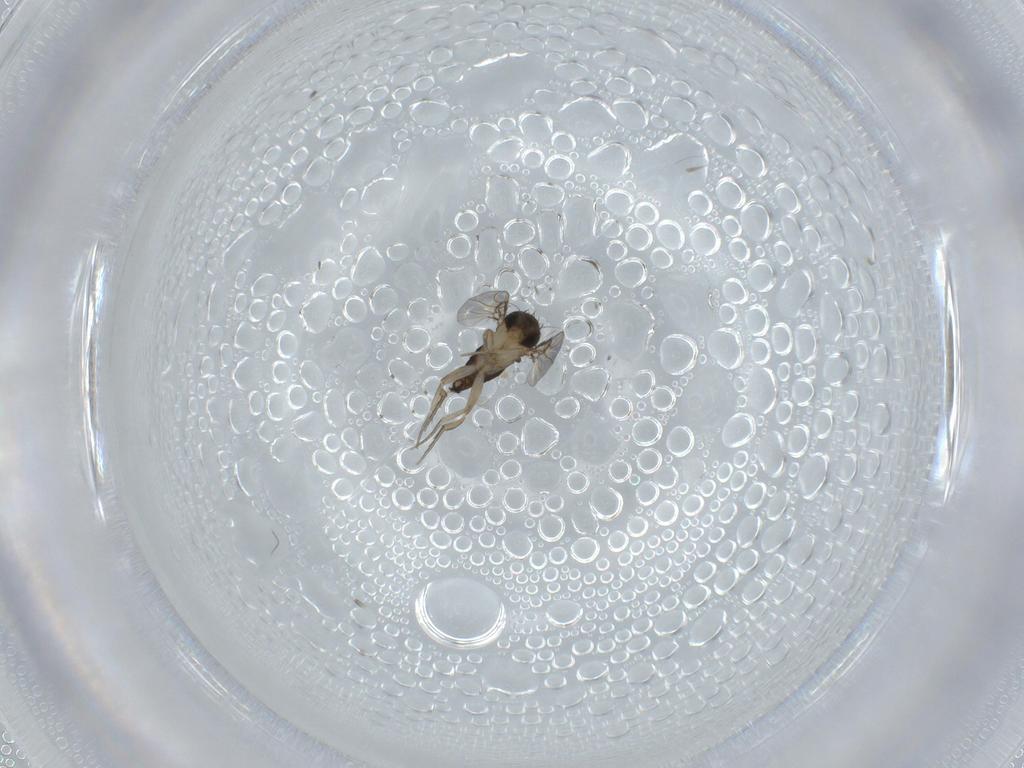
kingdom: Animalia
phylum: Arthropoda
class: Insecta
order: Diptera
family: Phoridae
